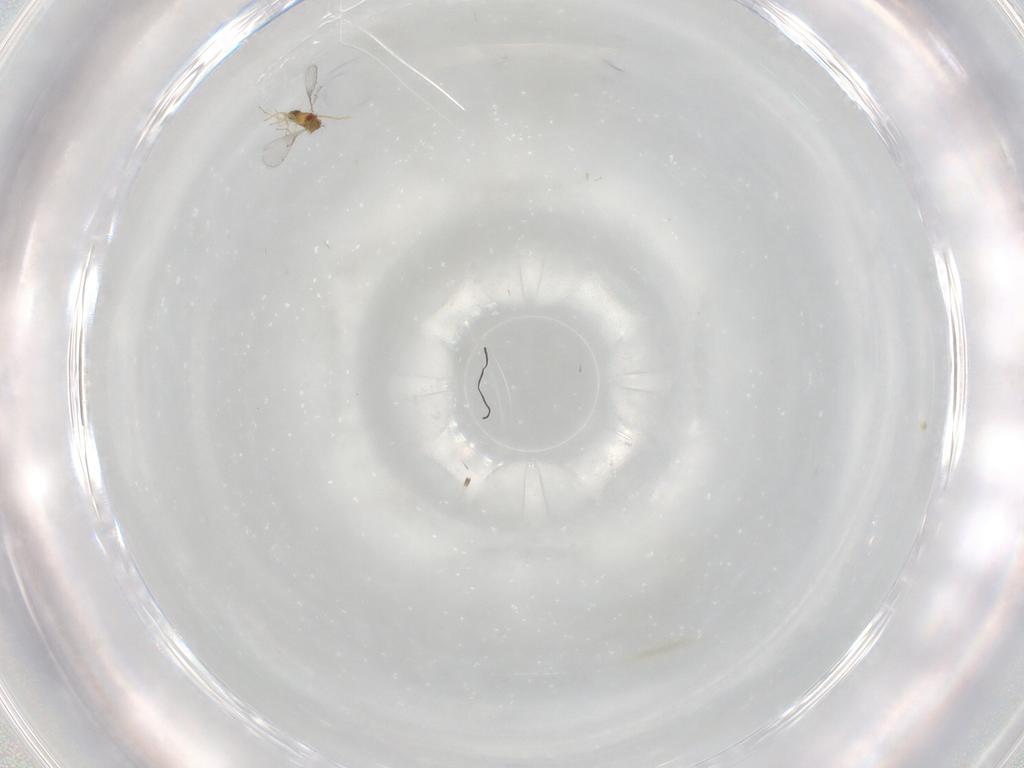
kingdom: Animalia
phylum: Arthropoda
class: Insecta
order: Hymenoptera
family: Trichogrammatidae
